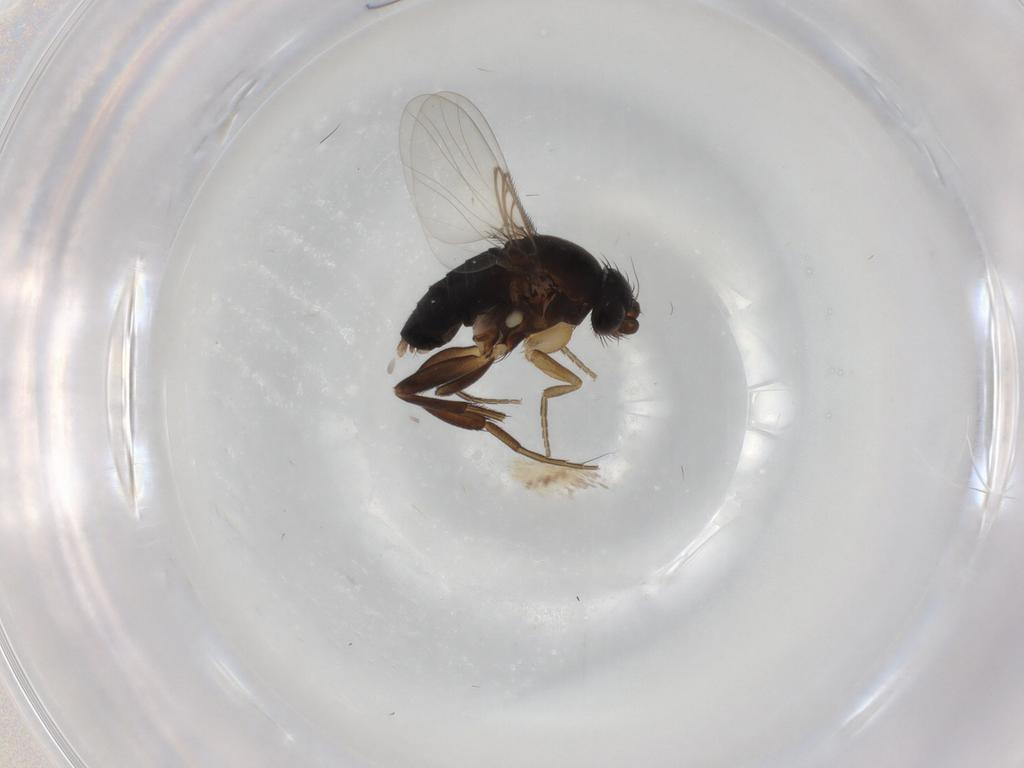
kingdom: Animalia
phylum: Arthropoda
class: Insecta
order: Diptera
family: Phoridae
